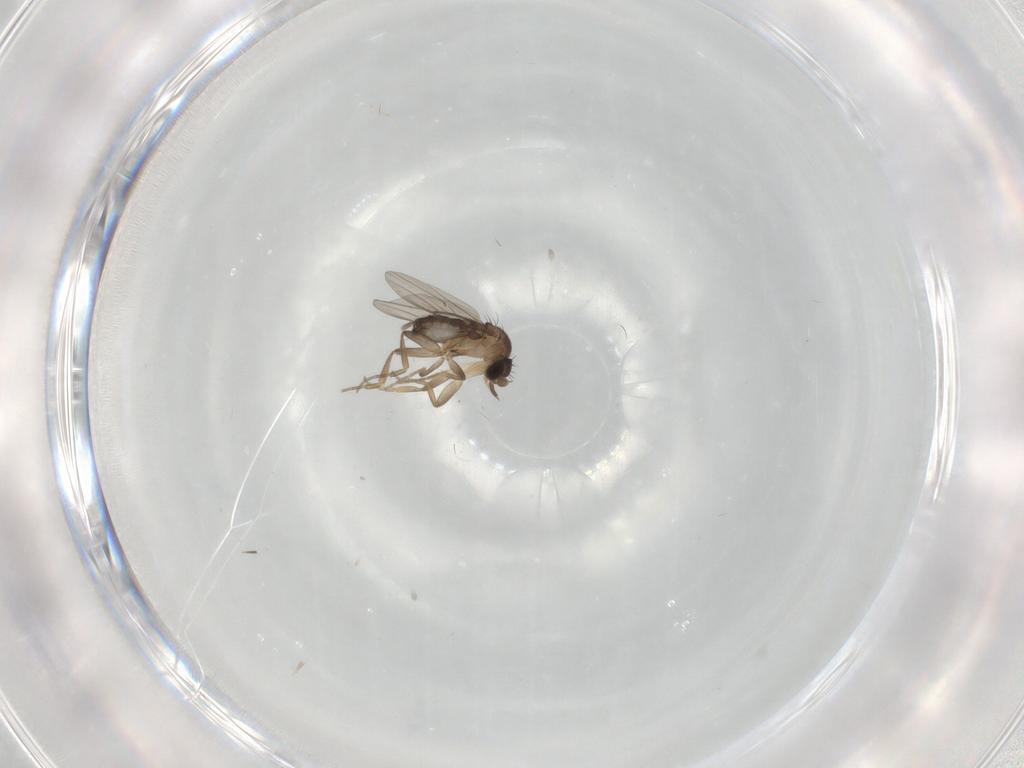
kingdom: Animalia
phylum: Arthropoda
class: Insecta
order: Diptera
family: Phoridae
